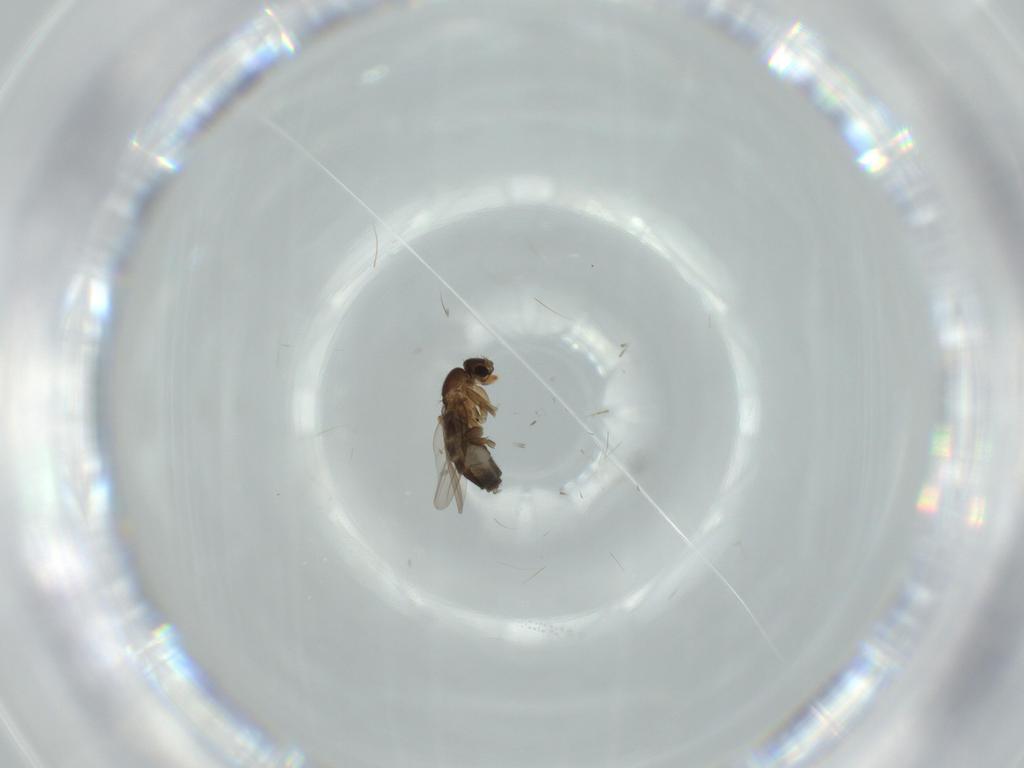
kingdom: Animalia
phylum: Arthropoda
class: Insecta
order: Diptera
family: Phoridae
